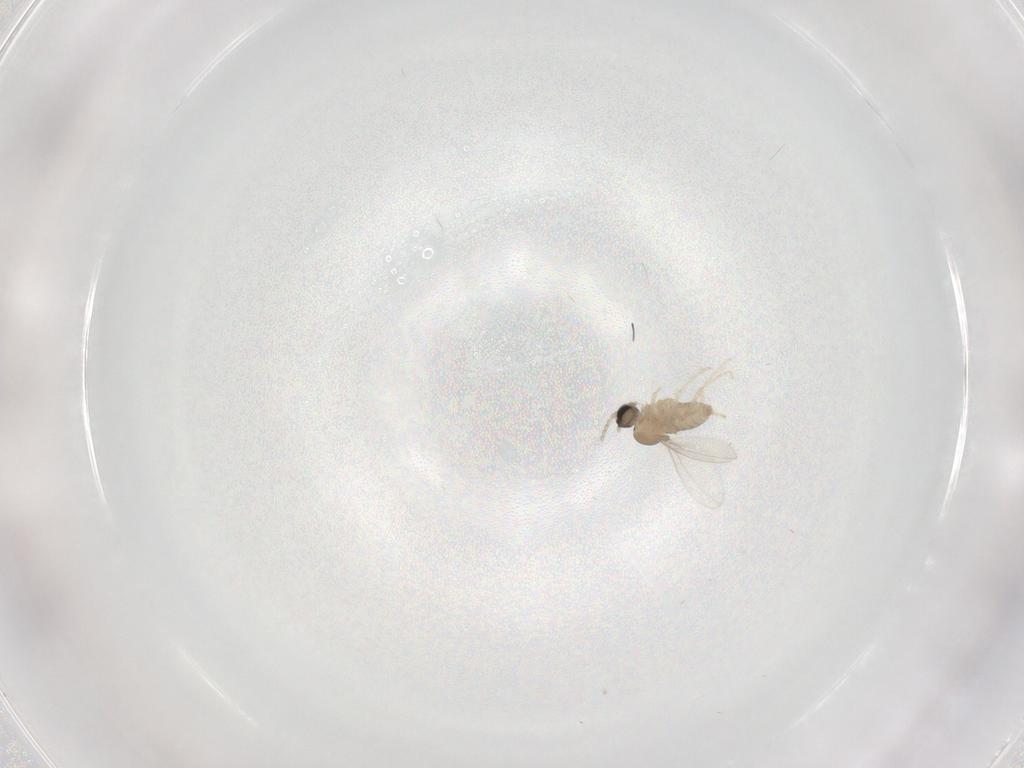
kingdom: Animalia
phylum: Arthropoda
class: Insecta
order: Diptera
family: Cecidomyiidae
